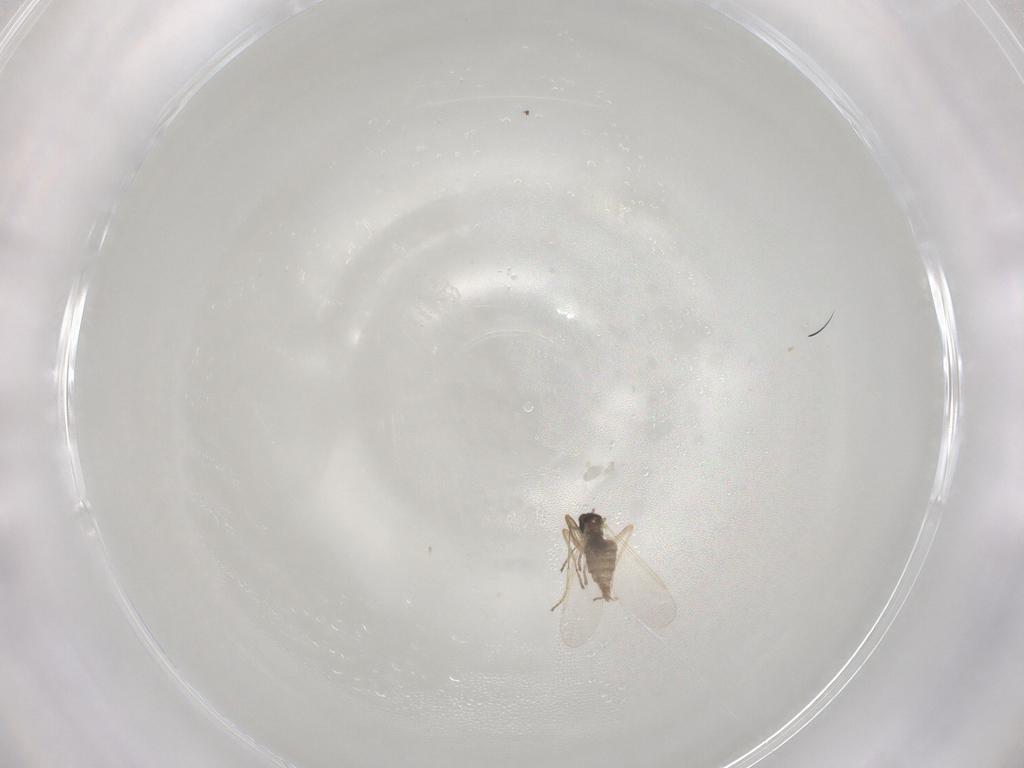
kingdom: Animalia
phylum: Arthropoda
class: Insecta
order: Diptera
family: Cecidomyiidae
